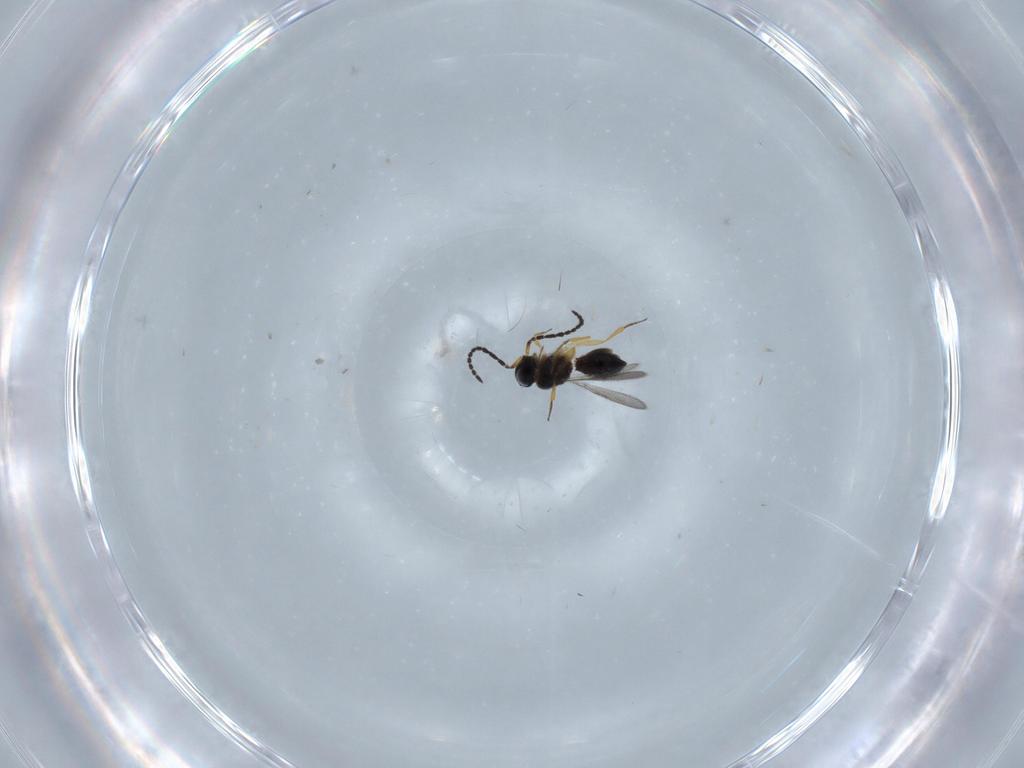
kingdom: Animalia
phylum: Arthropoda
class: Insecta
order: Hymenoptera
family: Scelionidae
